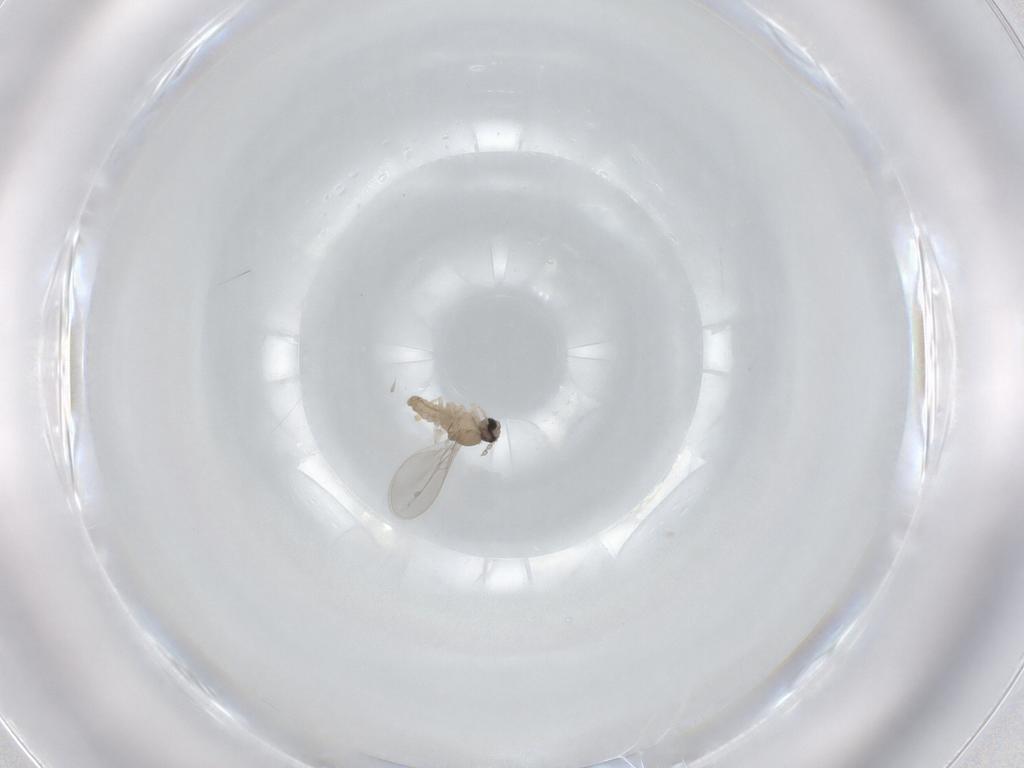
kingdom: Animalia
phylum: Arthropoda
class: Insecta
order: Diptera
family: Cecidomyiidae
